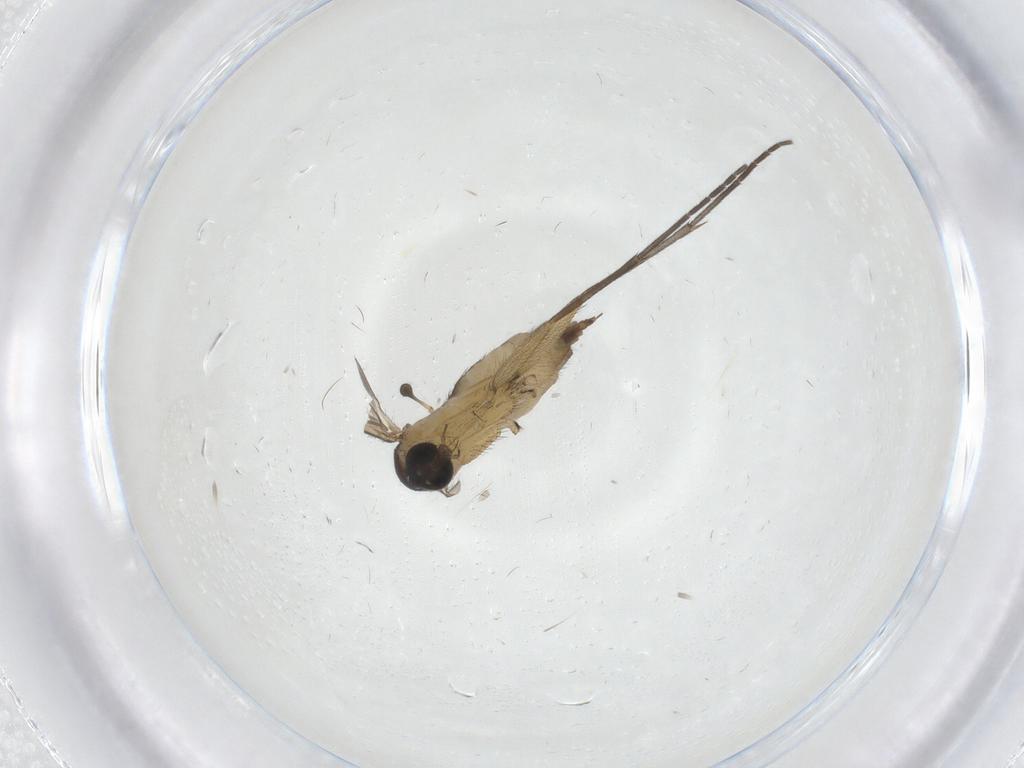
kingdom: Animalia
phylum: Arthropoda
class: Insecta
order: Diptera
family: Sciaridae
